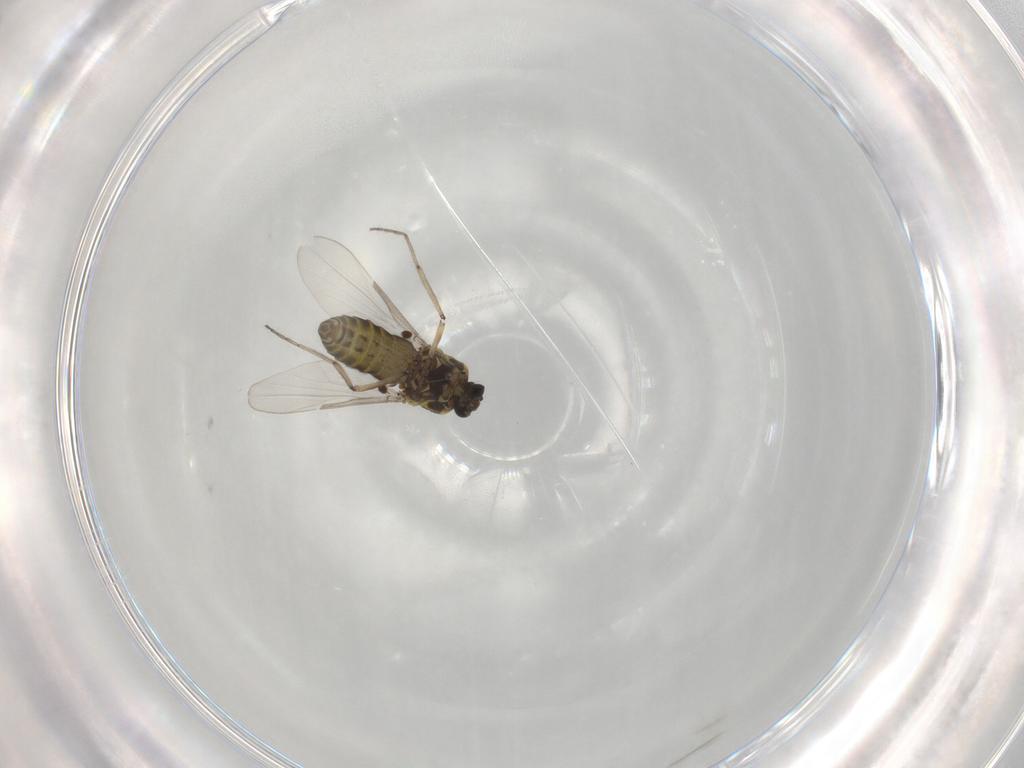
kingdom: Animalia
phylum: Arthropoda
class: Insecta
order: Diptera
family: Ceratopogonidae
